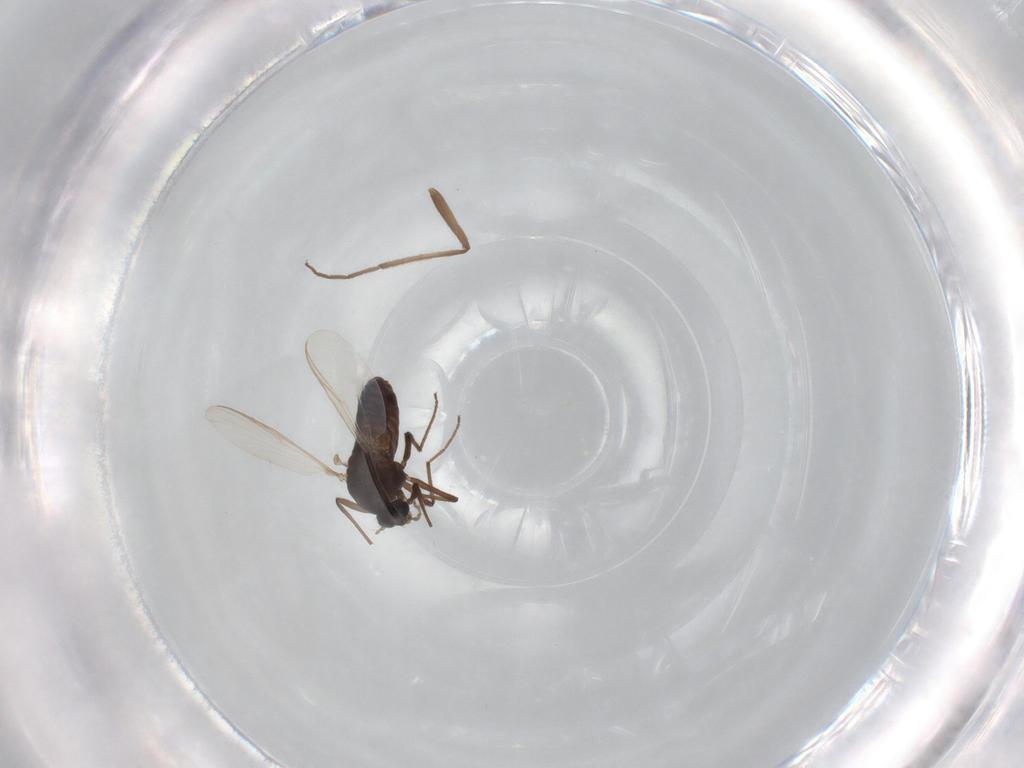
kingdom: Animalia
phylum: Arthropoda
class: Insecta
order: Diptera
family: Chironomidae
